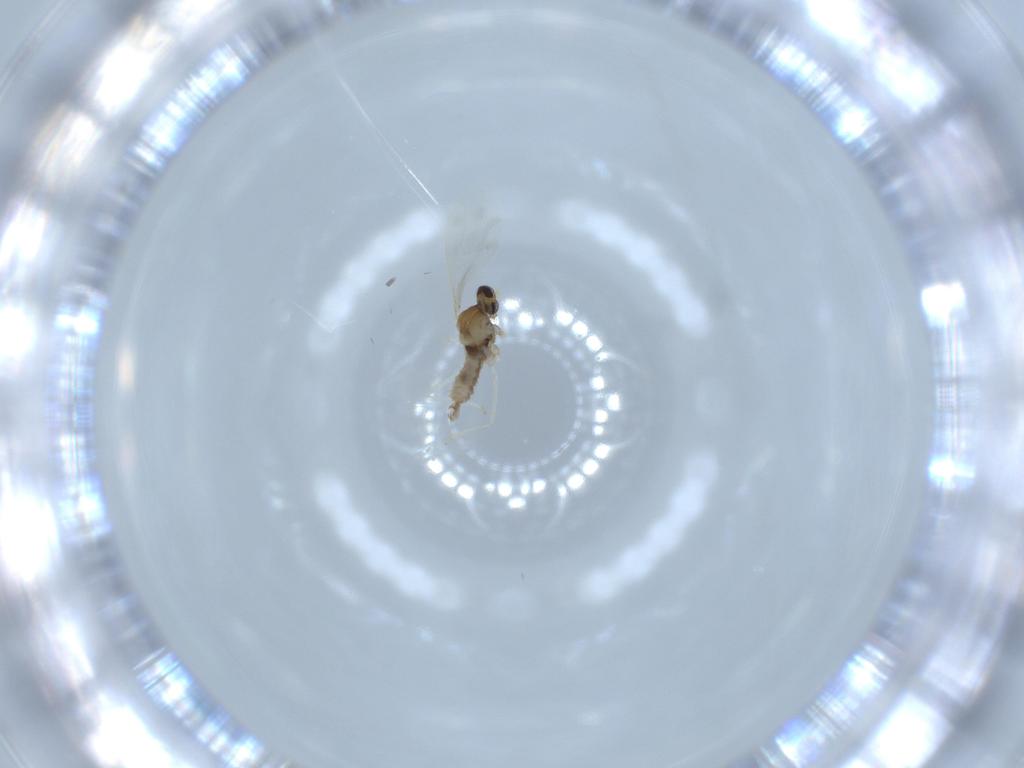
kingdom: Animalia
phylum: Arthropoda
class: Insecta
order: Diptera
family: Cecidomyiidae
